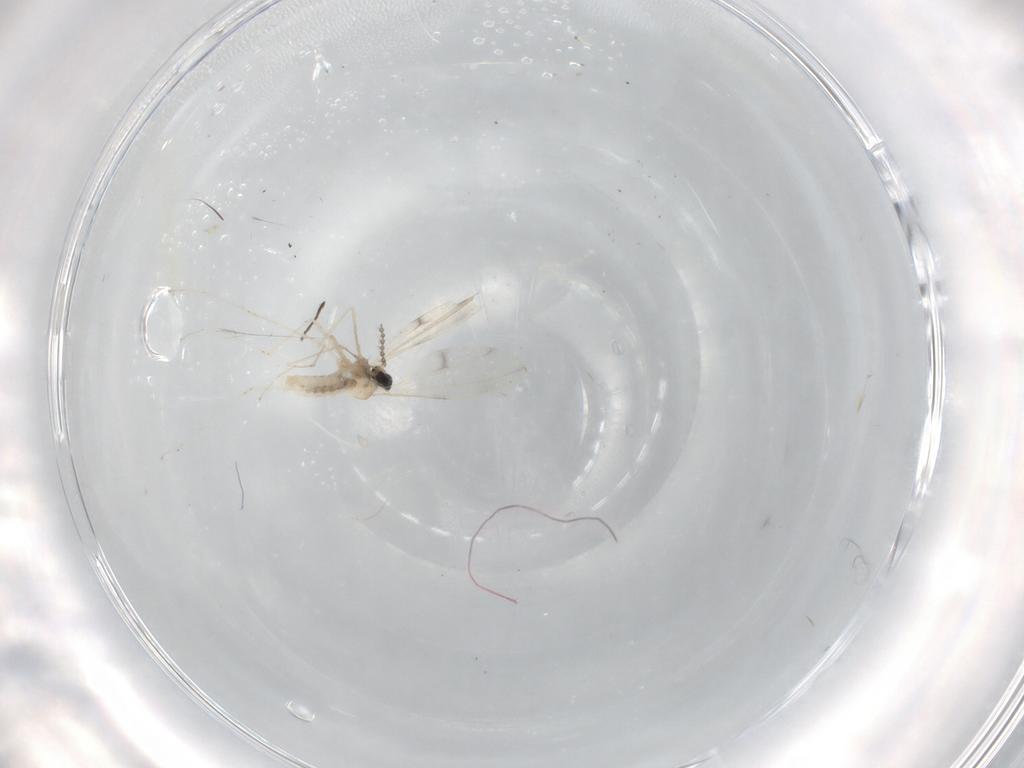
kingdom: Animalia
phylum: Arthropoda
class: Insecta
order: Diptera
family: Cecidomyiidae
